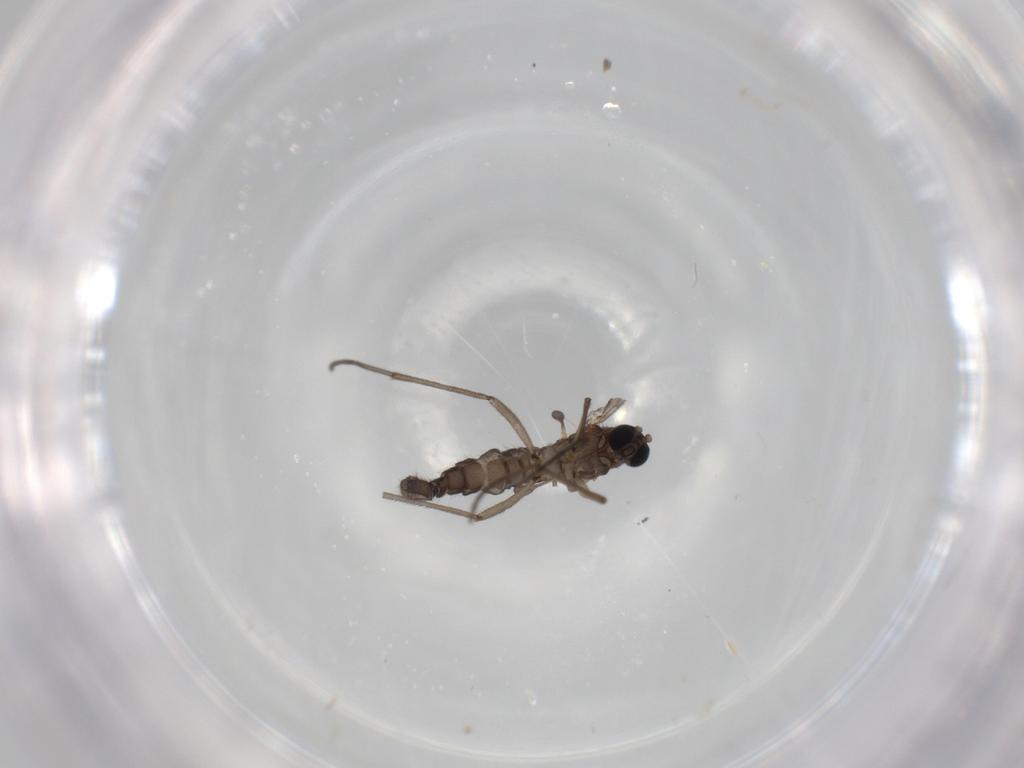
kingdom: Animalia
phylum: Arthropoda
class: Insecta
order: Diptera
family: Sciaridae
